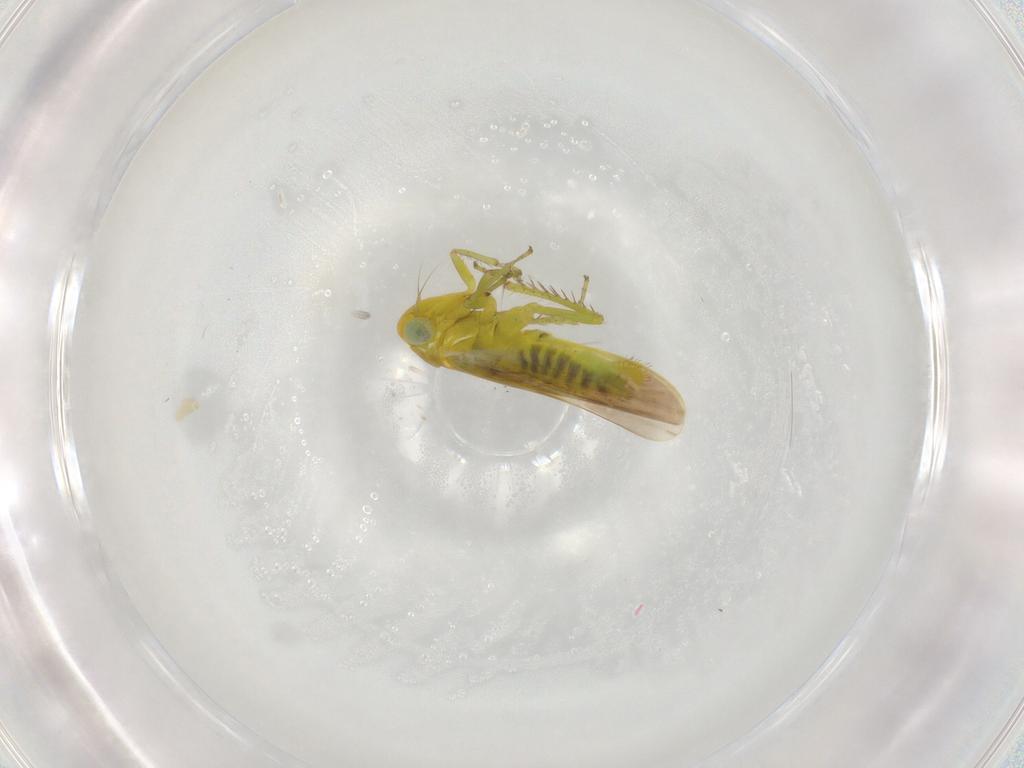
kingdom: Animalia
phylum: Arthropoda
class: Insecta
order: Hemiptera
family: Cicadellidae
